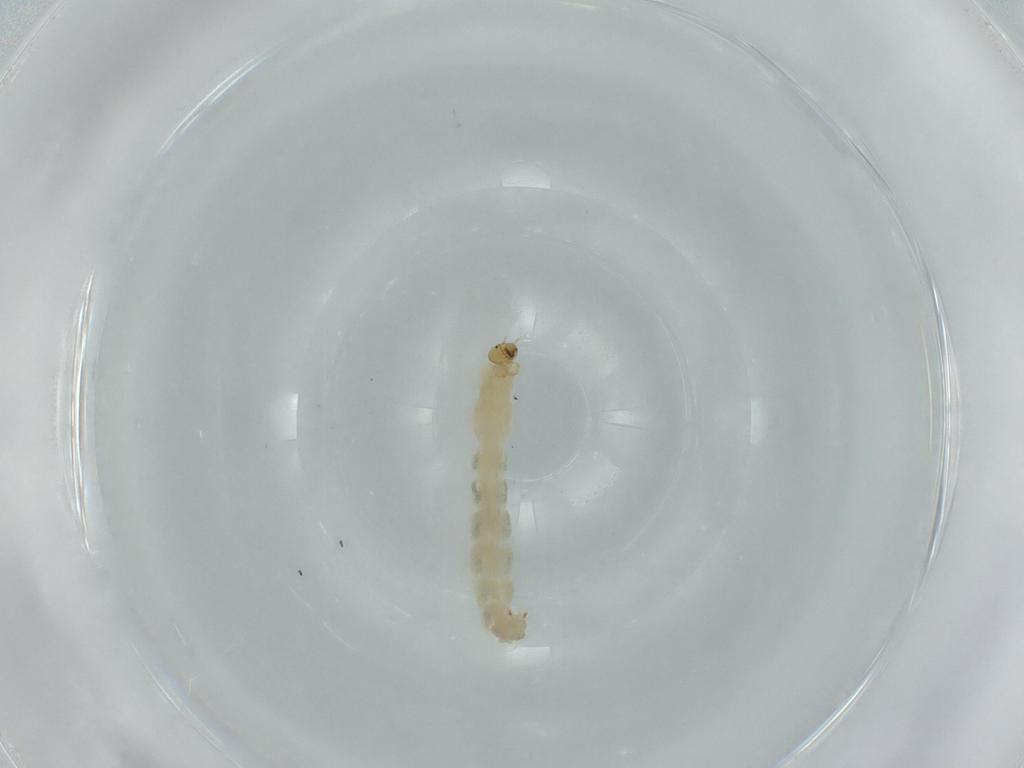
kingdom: Animalia
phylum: Arthropoda
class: Insecta
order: Diptera
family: Chironomidae
